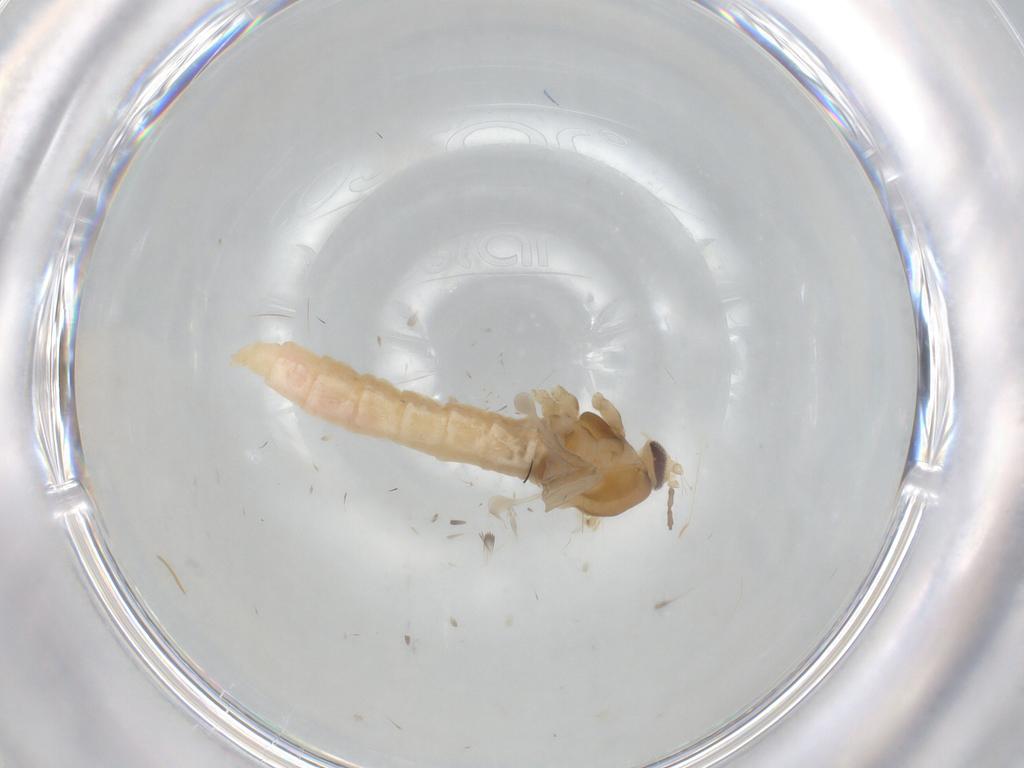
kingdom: Animalia
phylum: Arthropoda
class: Insecta
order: Diptera
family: Cecidomyiidae
